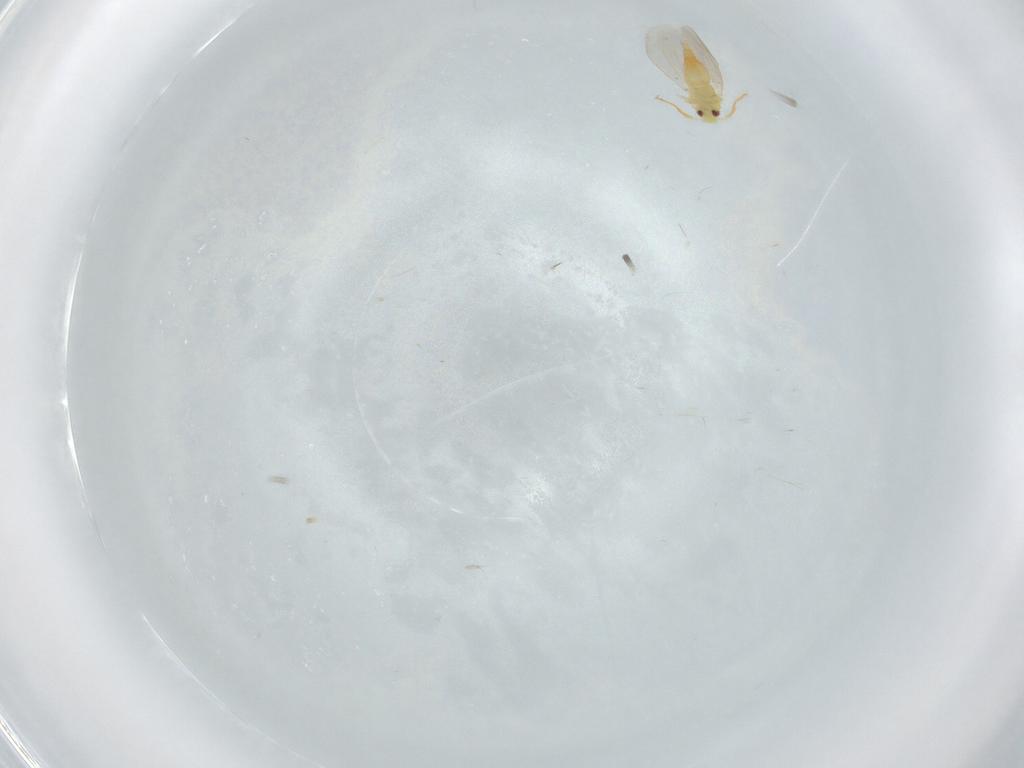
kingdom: Animalia
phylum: Arthropoda
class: Insecta
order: Hemiptera
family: Aleyrodidae
